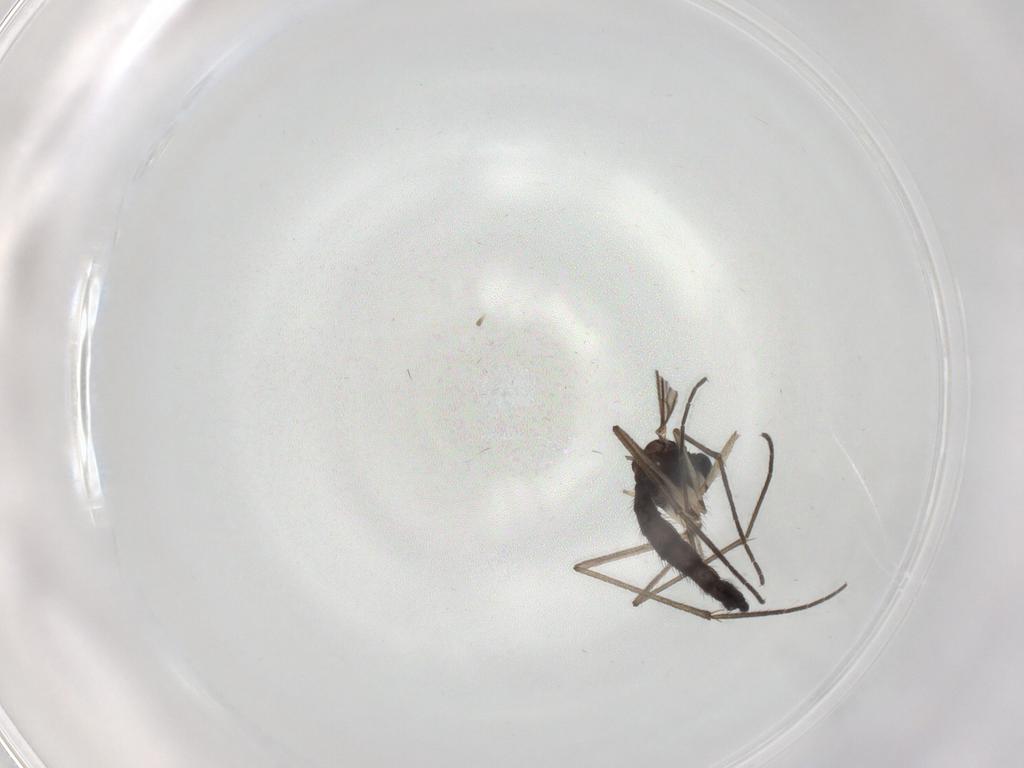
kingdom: Animalia
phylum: Arthropoda
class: Insecta
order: Diptera
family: Sciaridae
